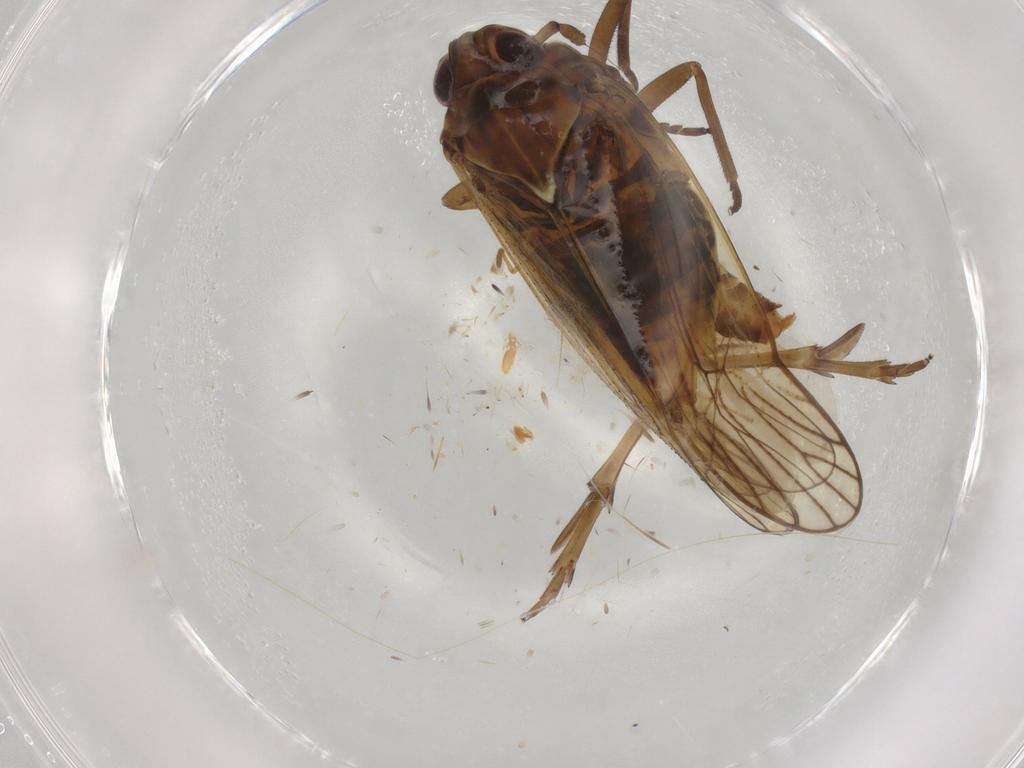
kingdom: Animalia
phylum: Arthropoda
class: Insecta
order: Hemiptera
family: Delphacidae
